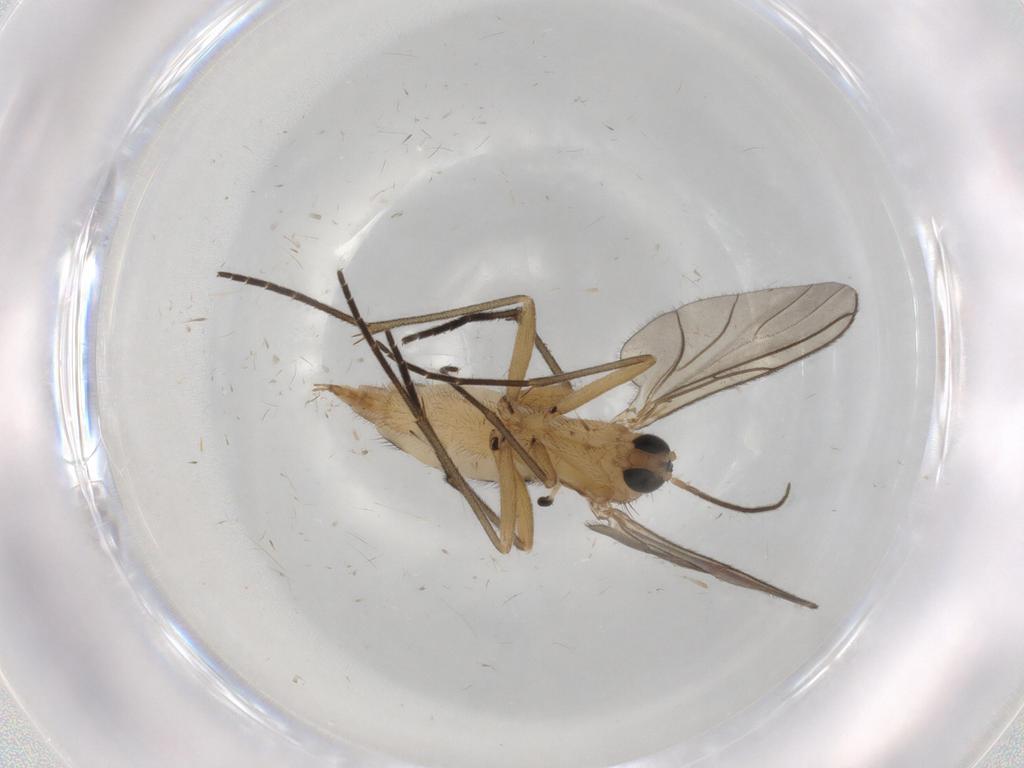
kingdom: Animalia
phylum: Arthropoda
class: Insecta
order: Diptera
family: Sciaridae
